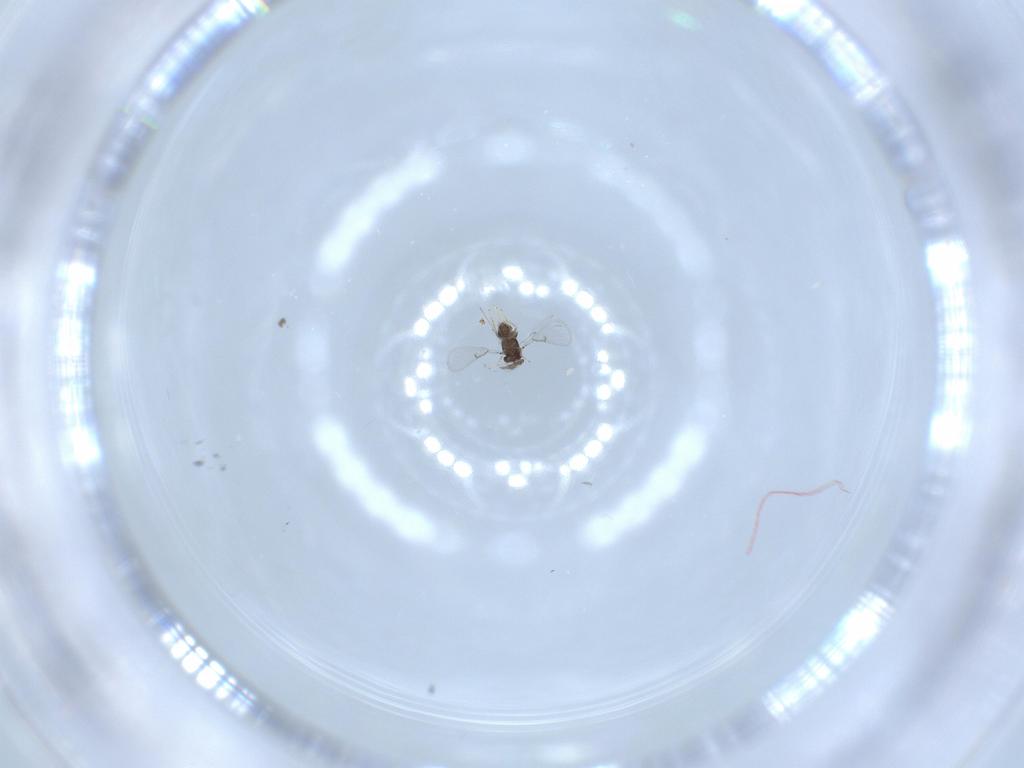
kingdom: Animalia
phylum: Arthropoda
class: Insecta
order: Hymenoptera
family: Eurytomidae
